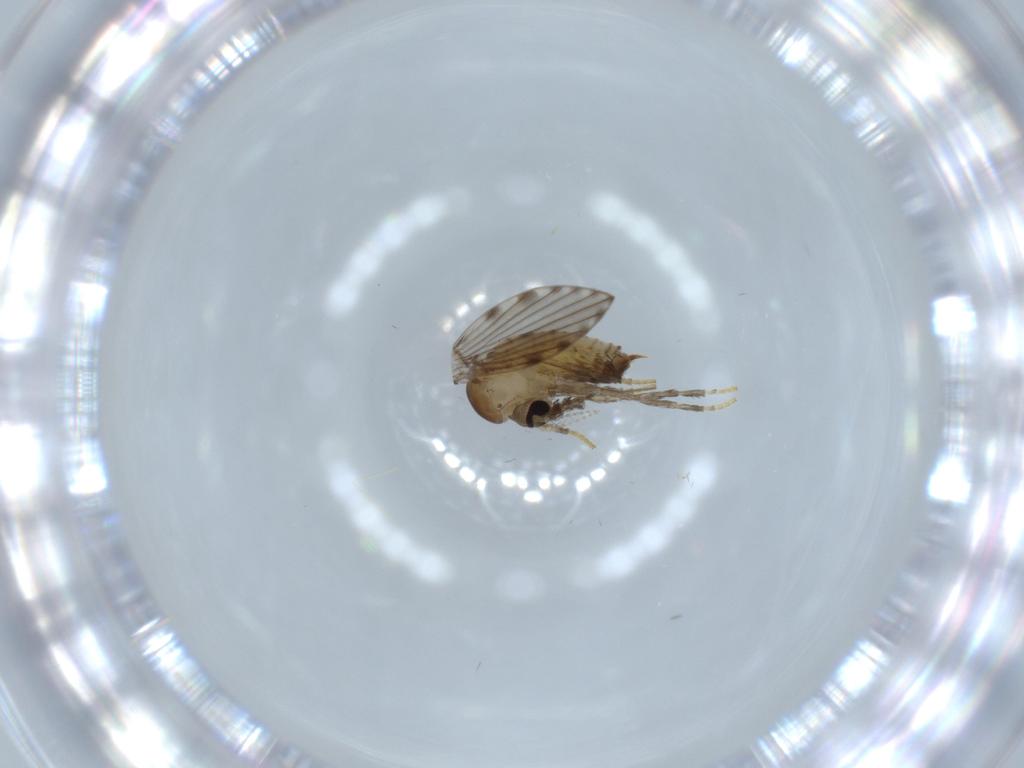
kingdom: Animalia
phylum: Arthropoda
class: Insecta
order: Diptera
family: Psychodidae
